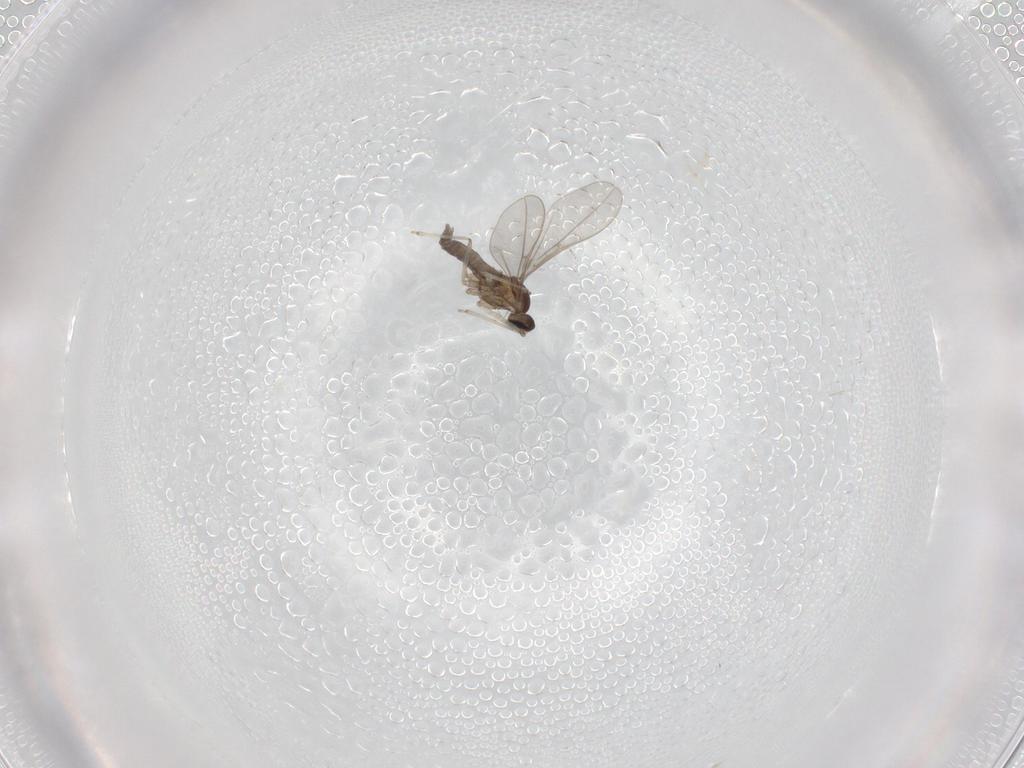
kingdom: Animalia
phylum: Arthropoda
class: Insecta
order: Diptera
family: Cecidomyiidae
